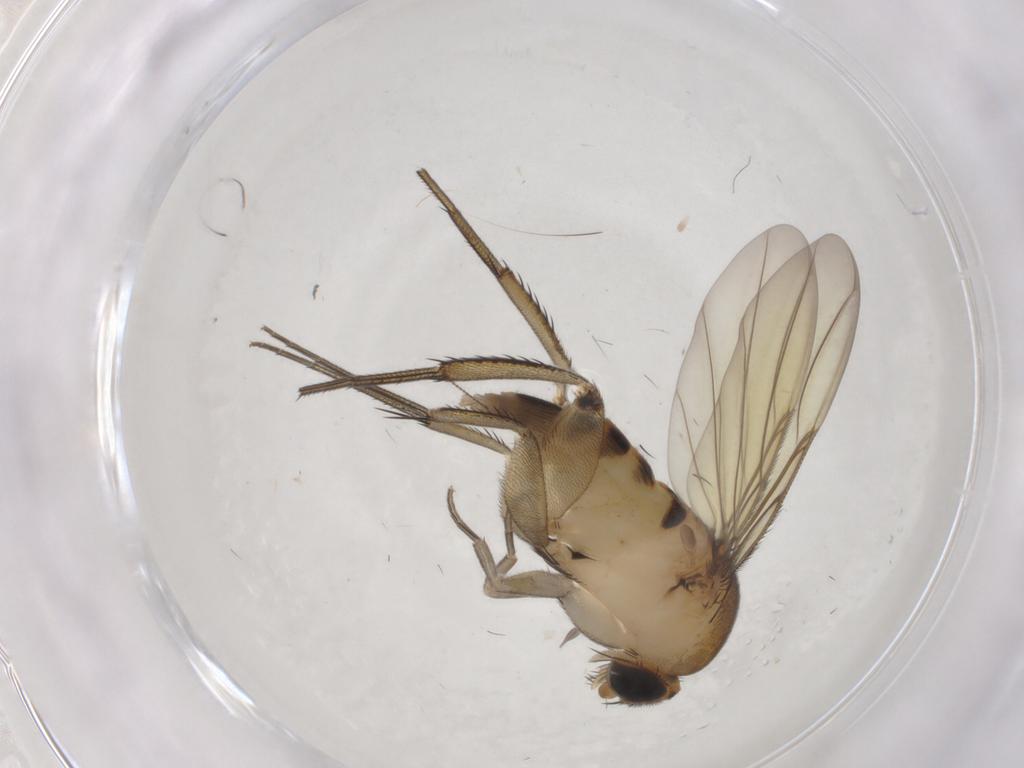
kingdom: Animalia
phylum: Arthropoda
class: Insecta
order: Diptera
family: Phoridae
